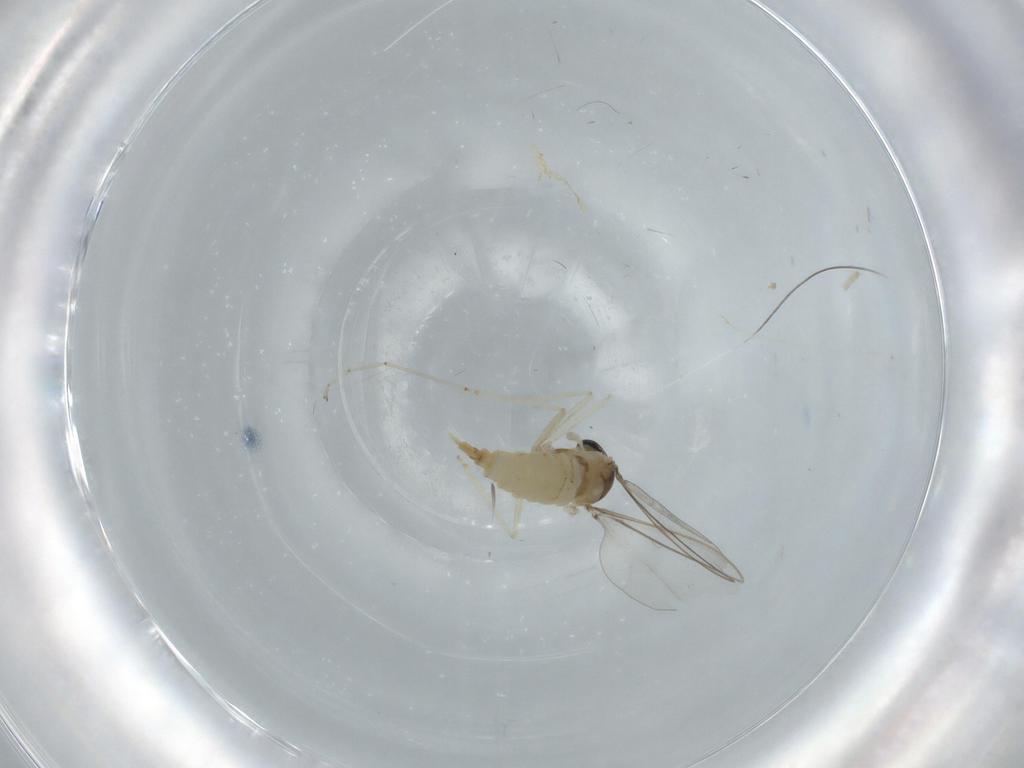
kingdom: Animalia
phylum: Arthropoda
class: Insecta
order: Diptera
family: Cecidomyiidae
